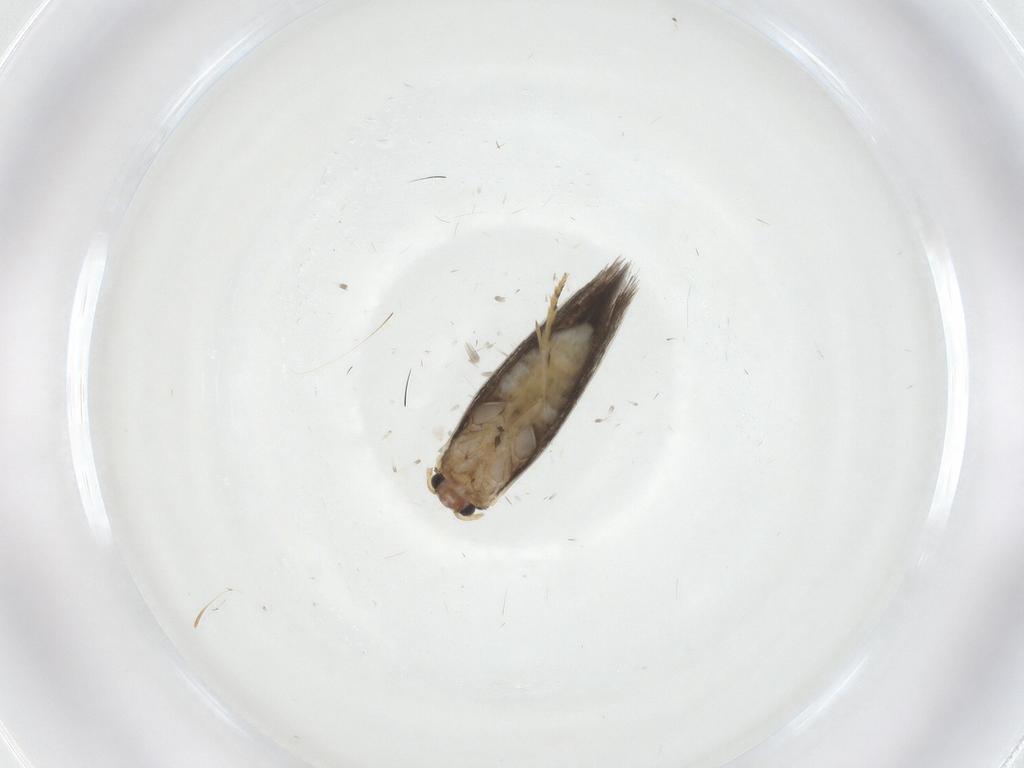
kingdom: Animalia
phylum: Arthropoda
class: Insecta
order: Lepidoptera
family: Nepticulidae
